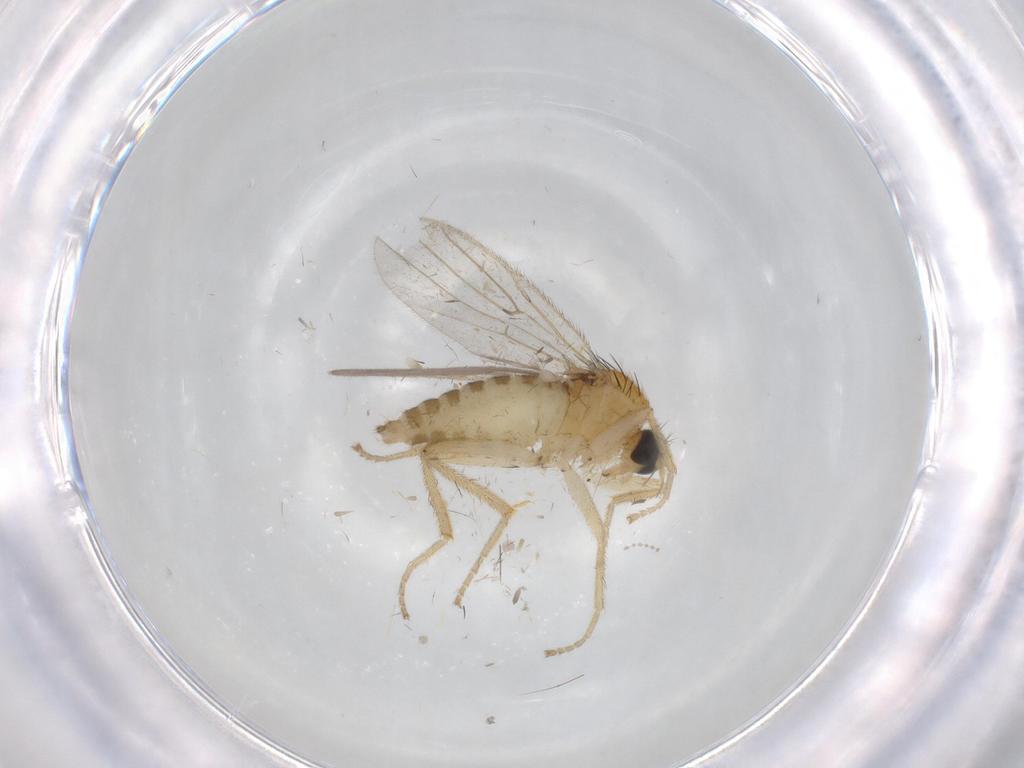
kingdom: Animalia
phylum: Arthropoda
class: Insecta
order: Diptera
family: Hybotidae
